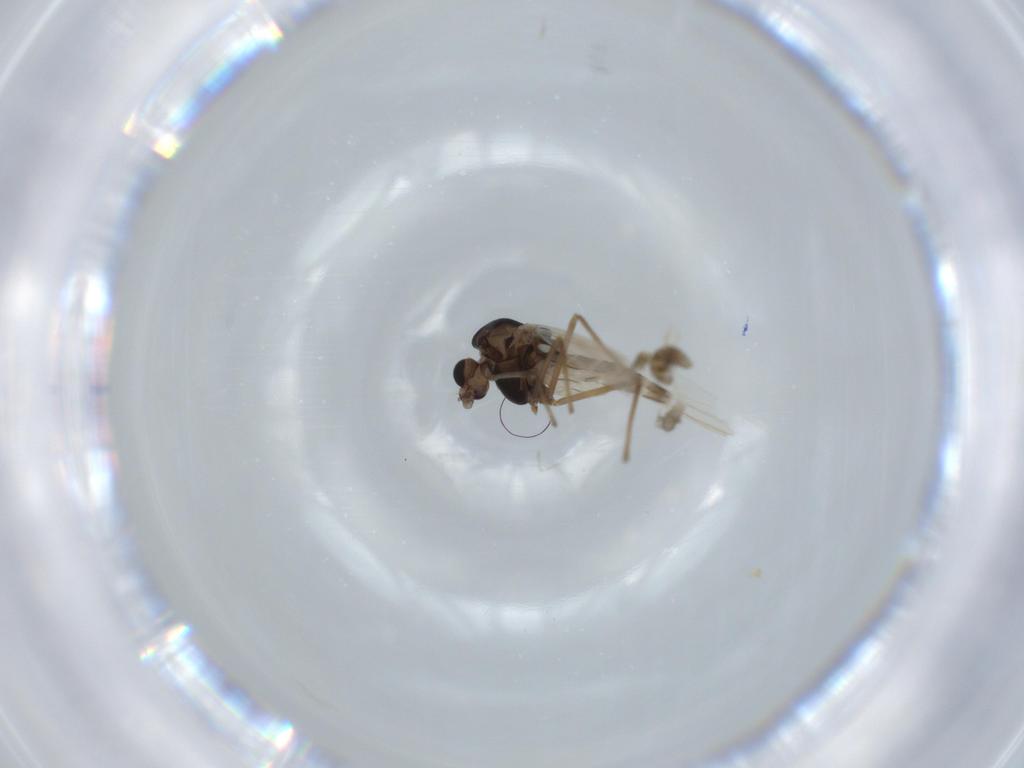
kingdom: Animalia
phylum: Arthropoda
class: Insecta
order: Diptera
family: Chironomidae
